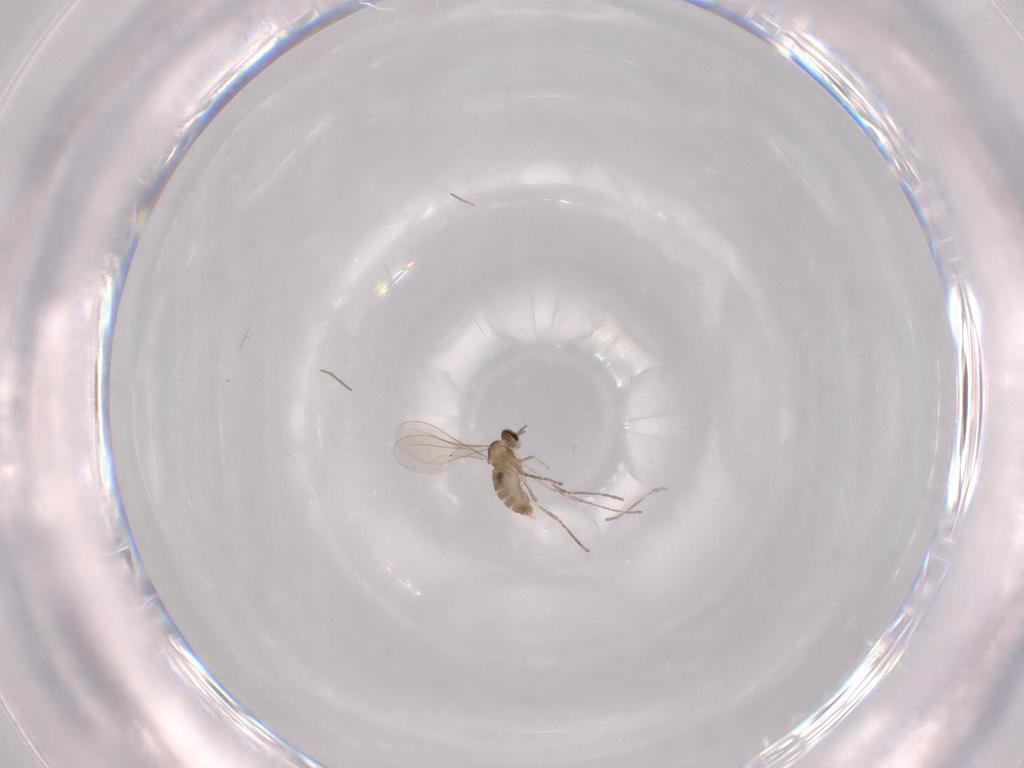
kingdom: Animalia
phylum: Arthropoda
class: Insecta
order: Diptera
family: Cecidomyiidae
